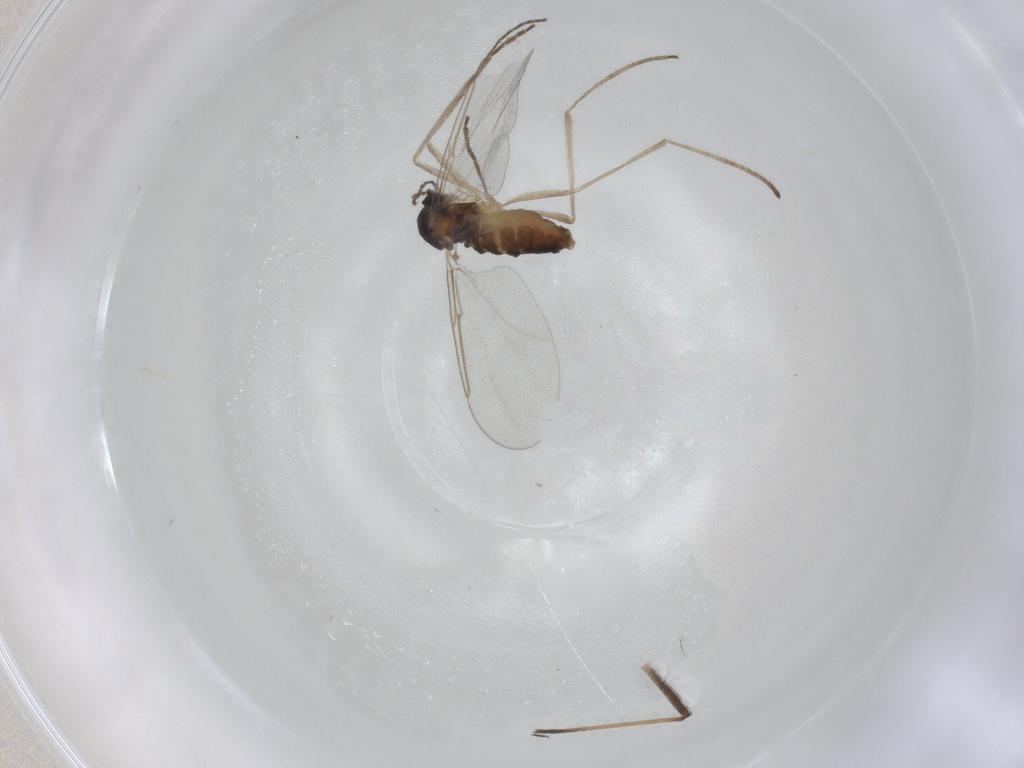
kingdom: Animalia
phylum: Arthropoda
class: Insecta
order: Diptera
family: Cecidomyiidae
